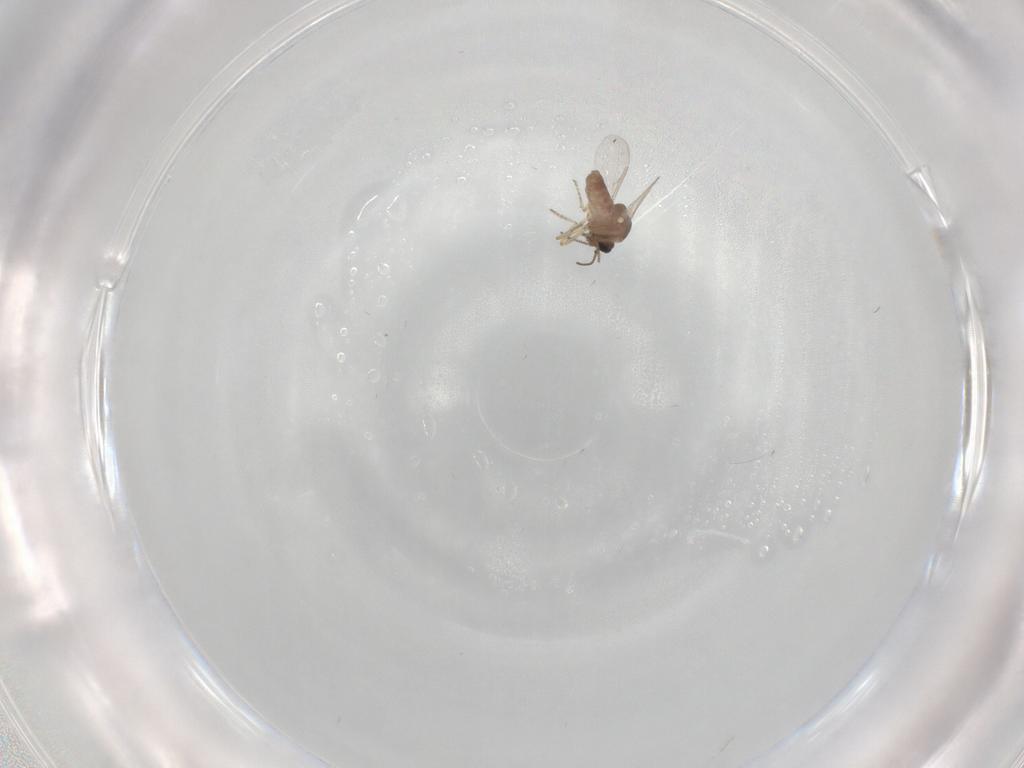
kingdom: Animalia
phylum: Arthropoda
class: Insecta
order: Diptera
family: Ceratopogonidae
